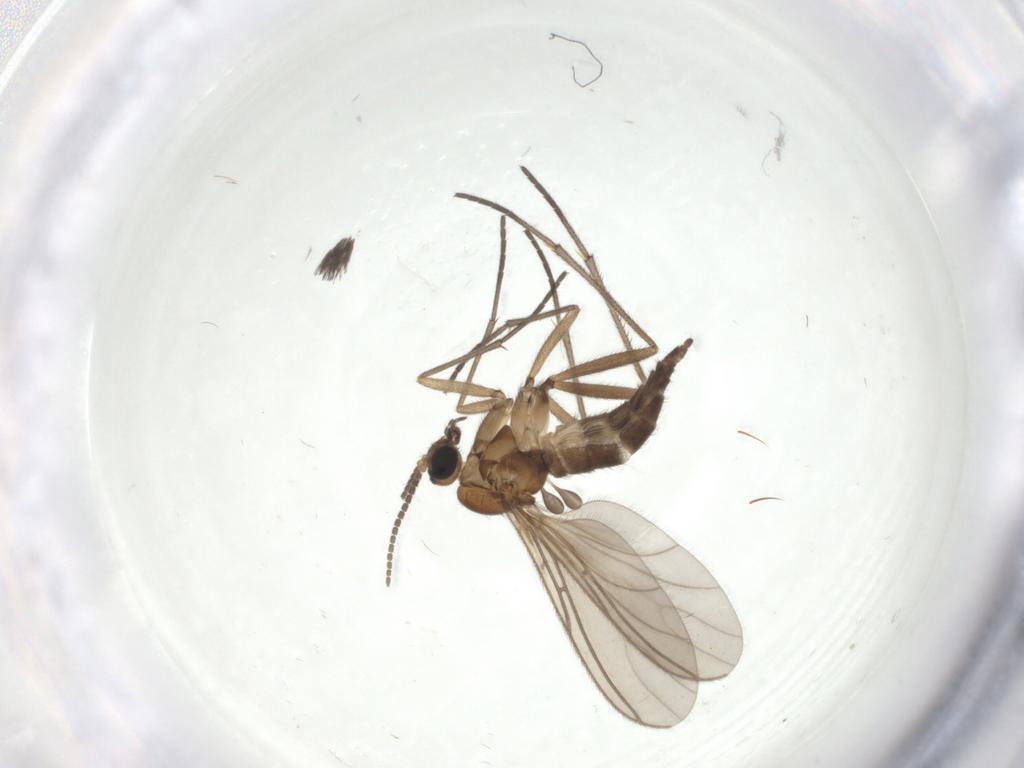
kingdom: Animalia
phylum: Arthropoda
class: Insecta
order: Diptera
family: Sciaridae
